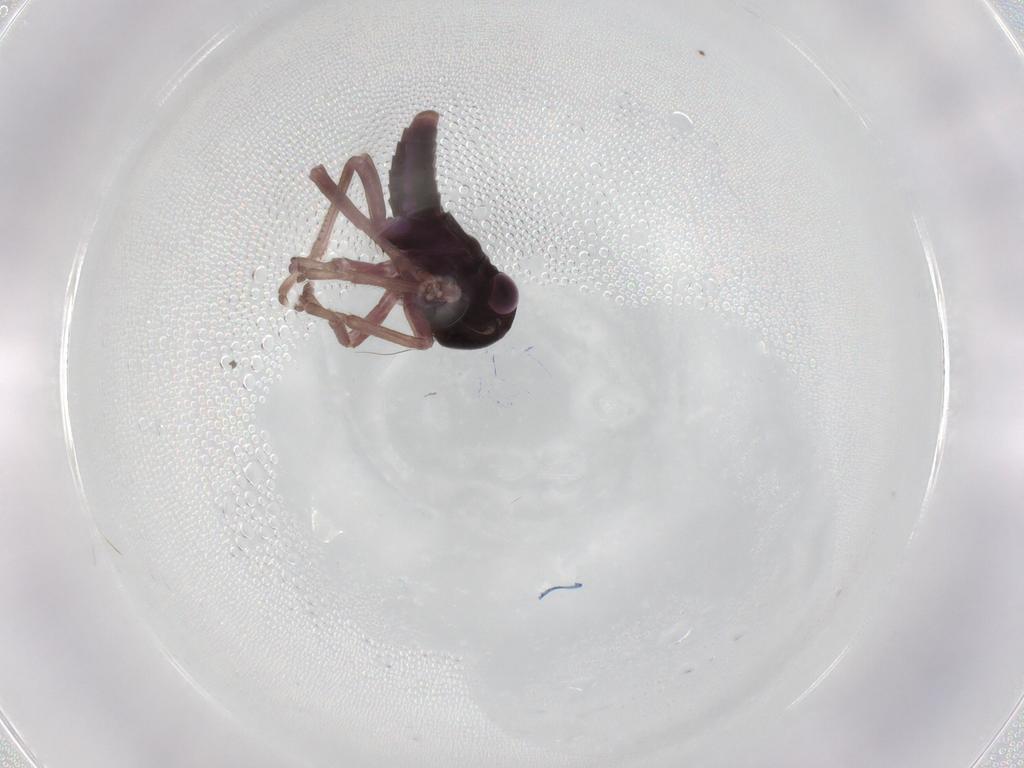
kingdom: Animalia
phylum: Arthropoda
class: Insecta
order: Hemiptera
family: Cicadellidae
